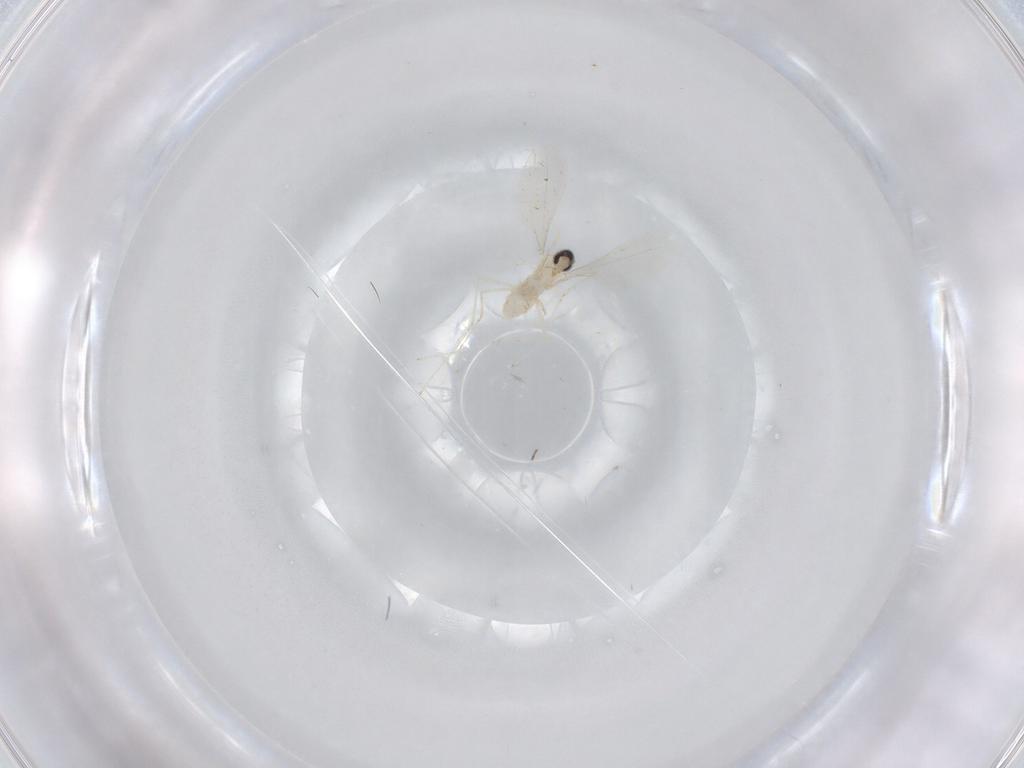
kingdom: Animalia
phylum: Arthropoda
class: Insecta
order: Diptera
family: Cecidomyiidae
